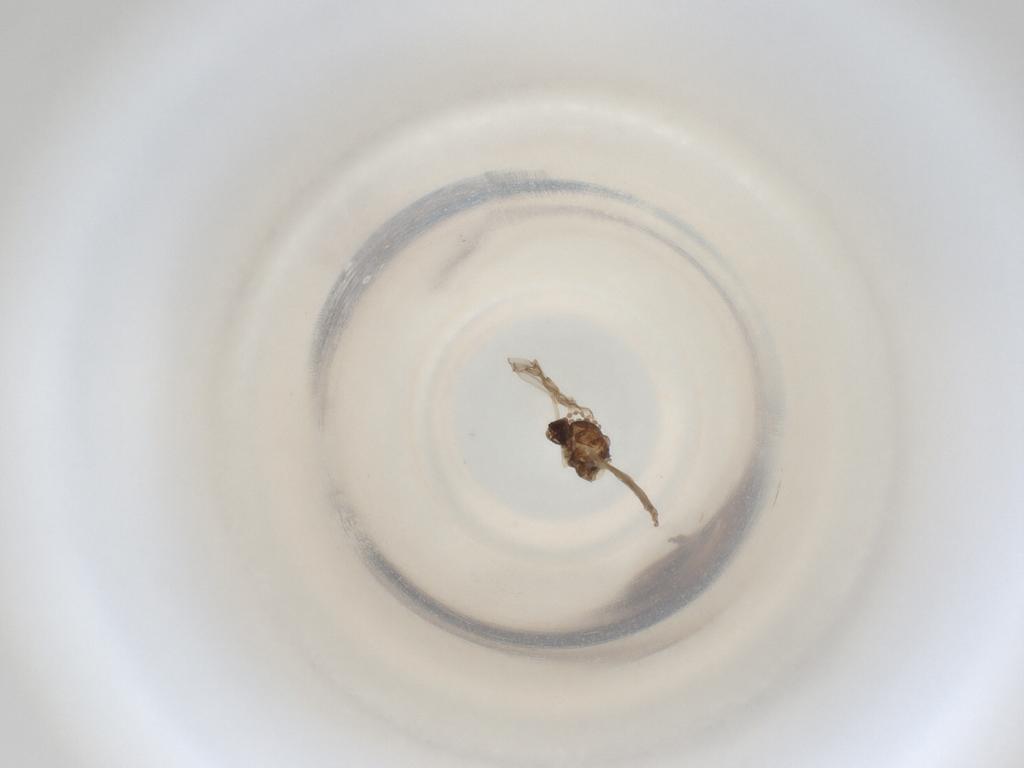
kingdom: Animalia
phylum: Arthropoda
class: Insecta
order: Diptera
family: Cecidomyiidae
